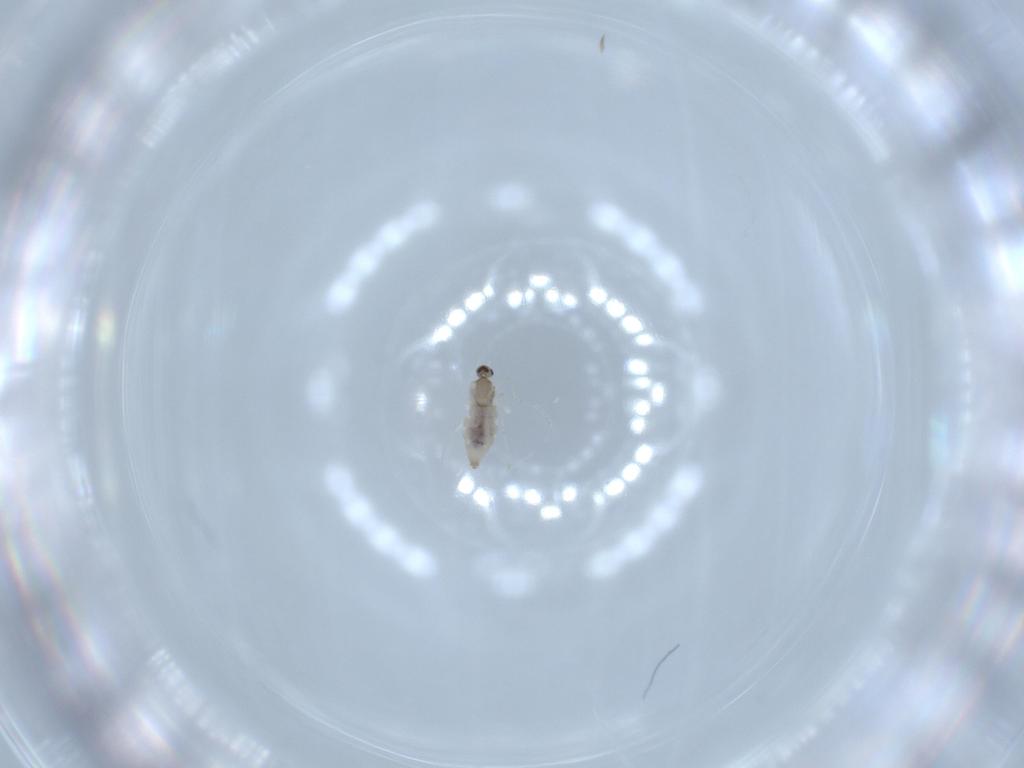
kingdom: Animalia
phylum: Arthropoda
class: Insecta
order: Diptera
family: Cecidomyiidae
